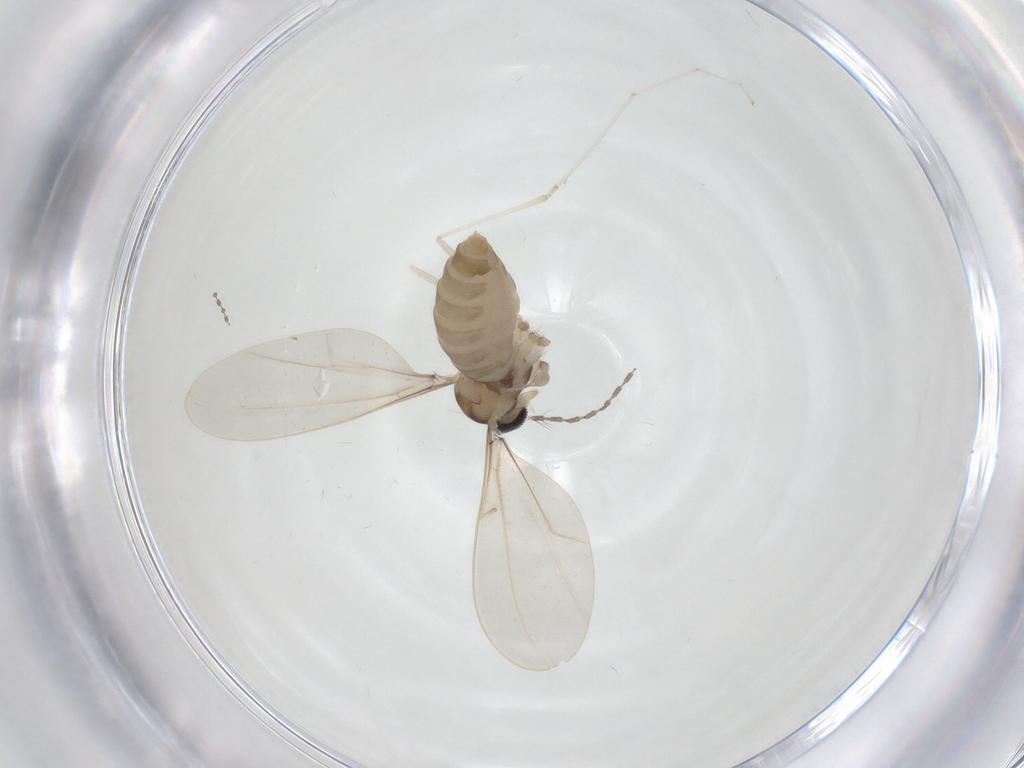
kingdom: Animalia
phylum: Arthropoda
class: Insecta
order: Diptera
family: Cecidomyiidae
